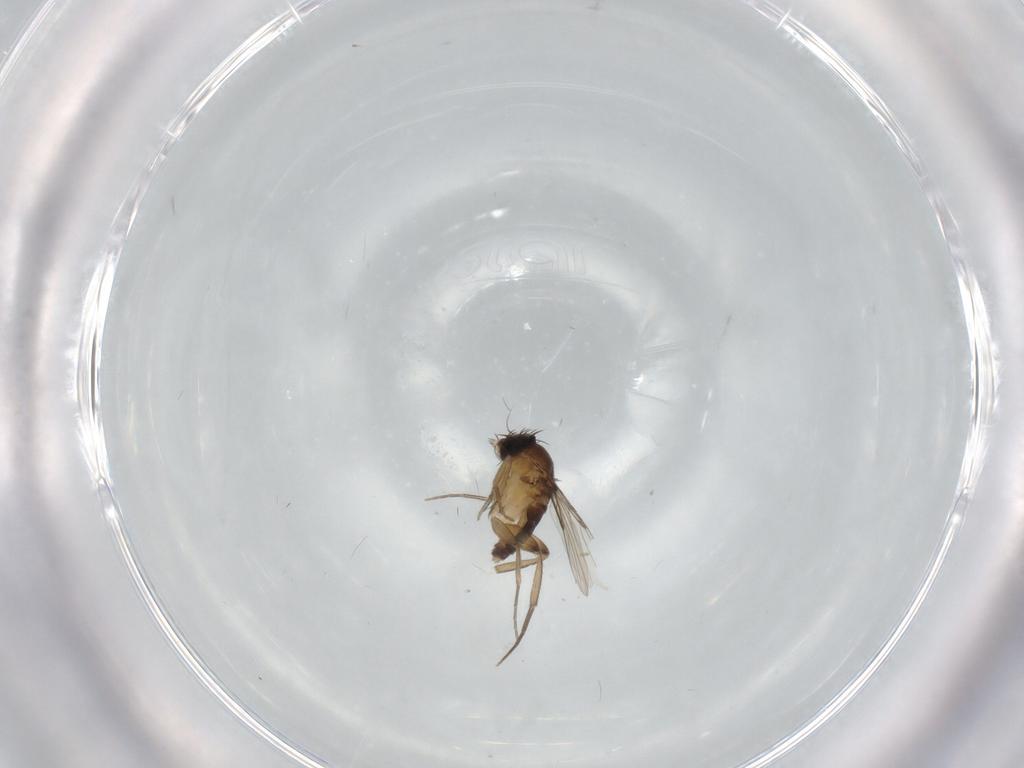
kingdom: Animalia
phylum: Arthropoda
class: Insecta
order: Diptera
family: Phoridae
